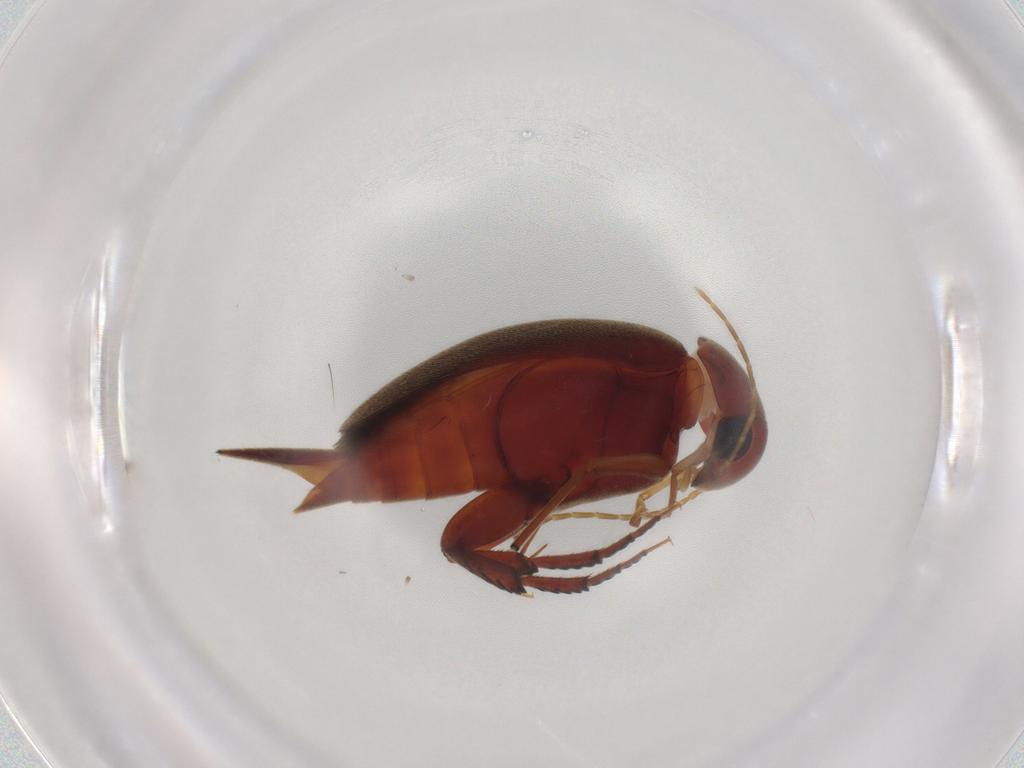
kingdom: Animalia
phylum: Arthropoda
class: Insecta
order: Coleoptera
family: Mordellidae
